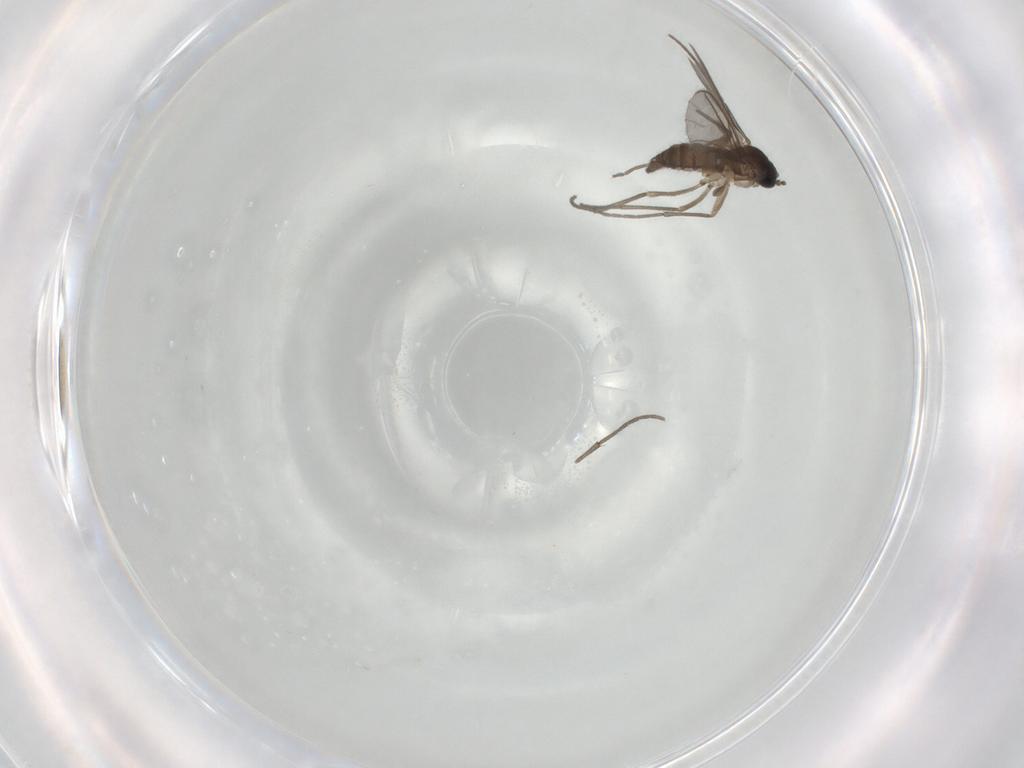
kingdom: Animalia
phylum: Arthropoda
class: Insecta
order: Diptera
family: Sciaridae
